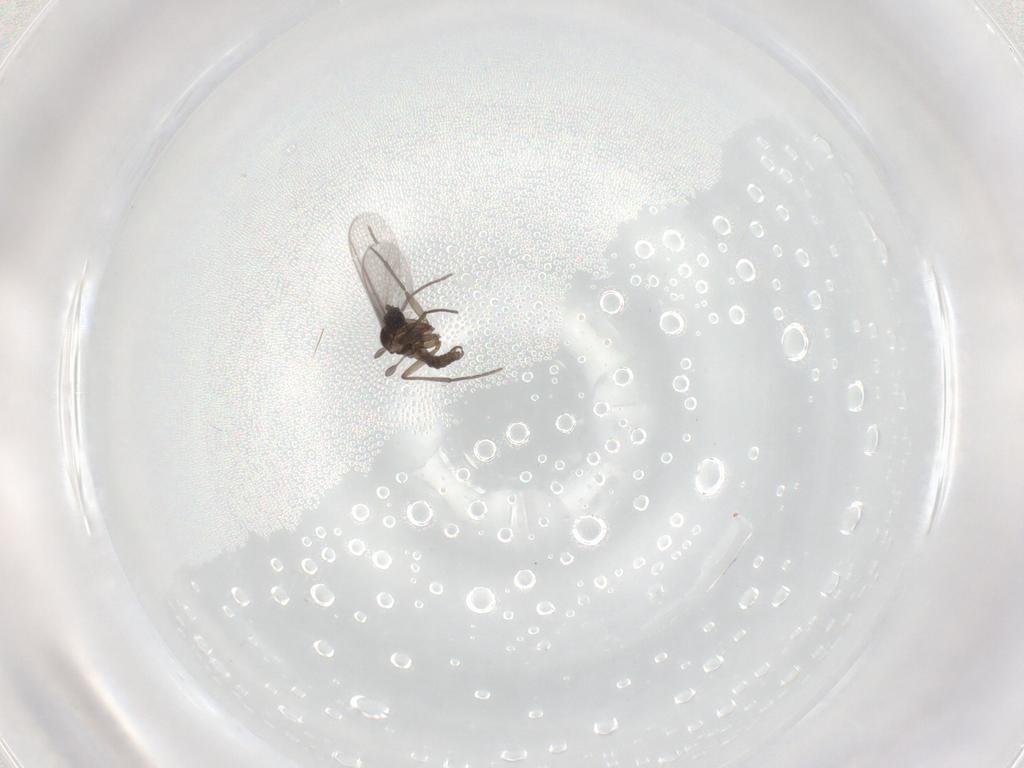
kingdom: Animalia
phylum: Arthropoda
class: Insecta
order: Diptera
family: Sciaridae
